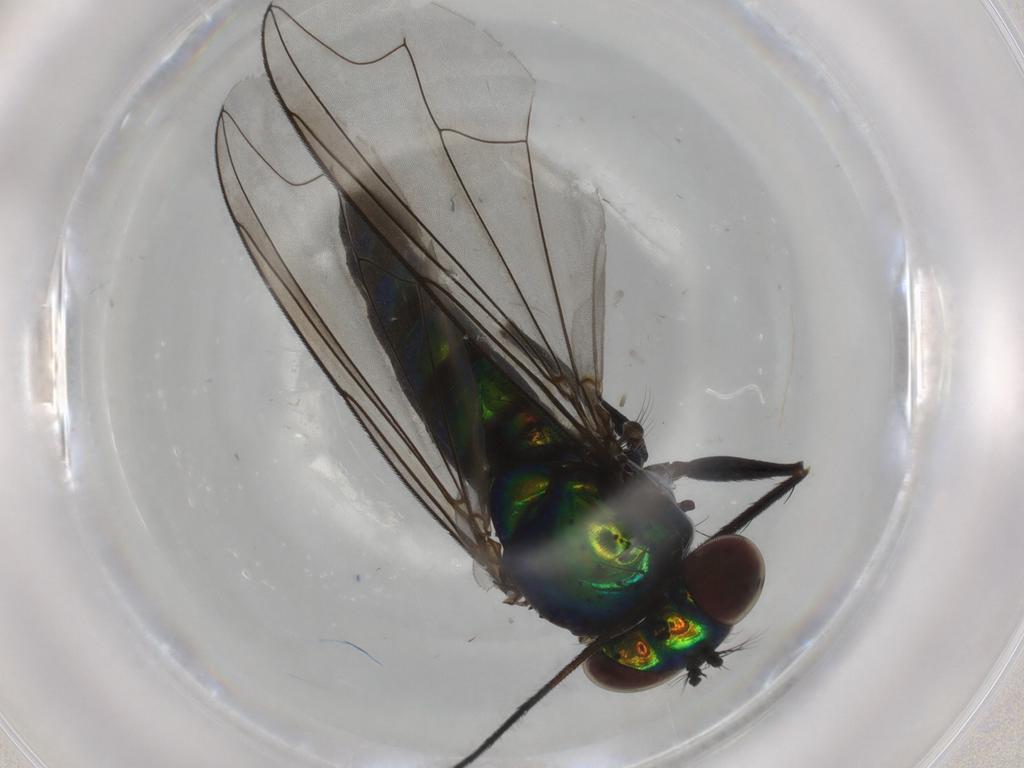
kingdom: Animalia
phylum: Arthropoda
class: Insecta
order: Diptera
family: Dolichopodidae
